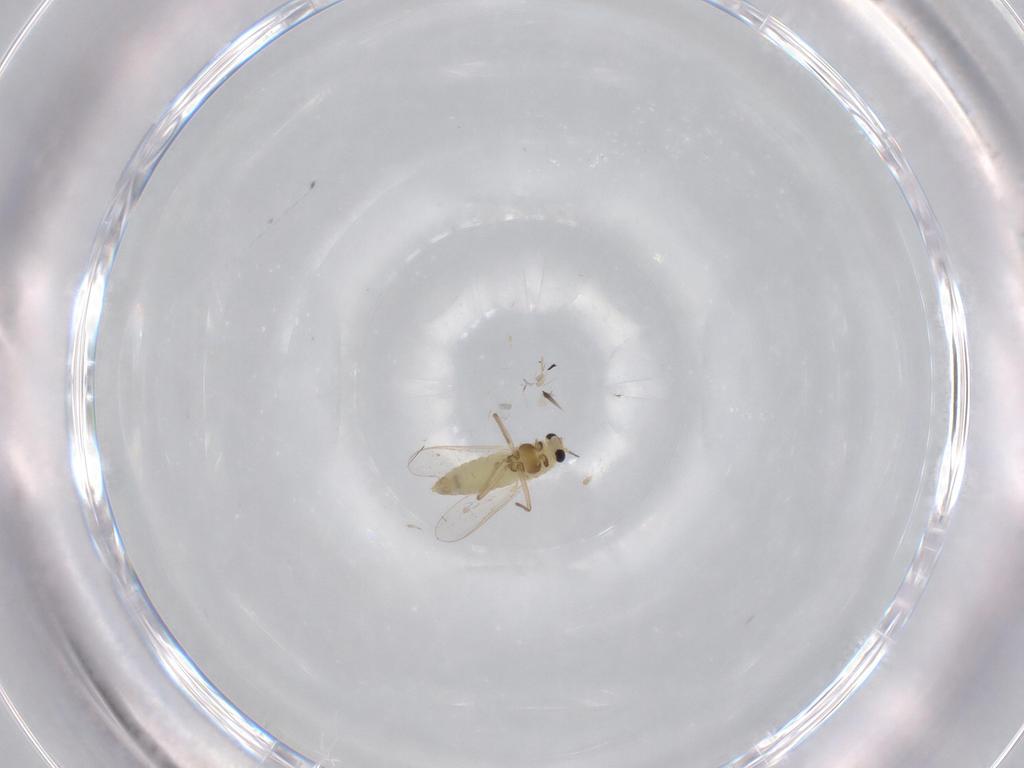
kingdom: Animalia
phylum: Arthropoda
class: Insecta
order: Diptera
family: Chironomidae
